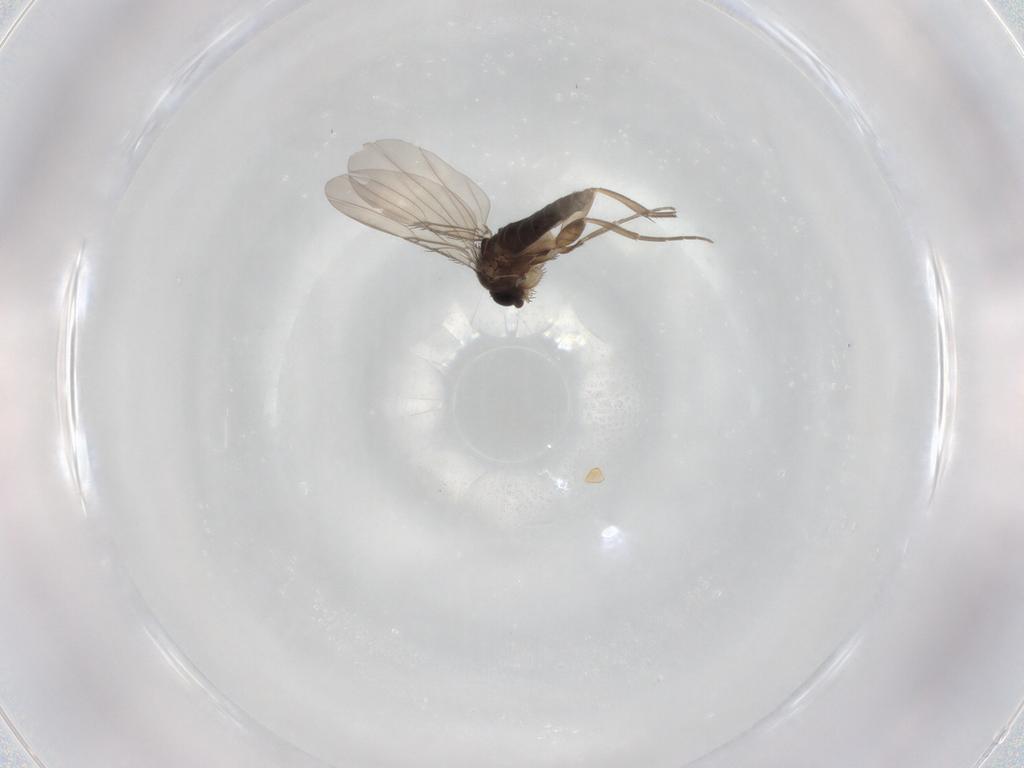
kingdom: Animalia
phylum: Arthropoda
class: Insecta
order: Diptera
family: Phoridae
